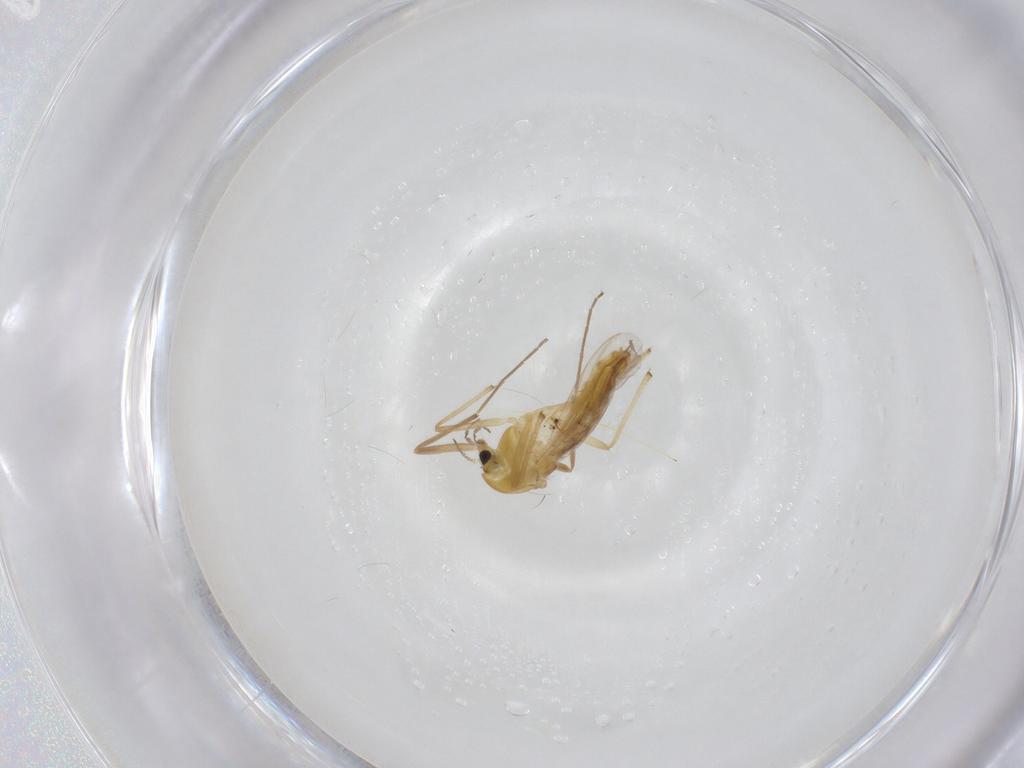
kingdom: Animalia
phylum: Arthropoda
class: Insecta
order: Diptera
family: Chironomidae
